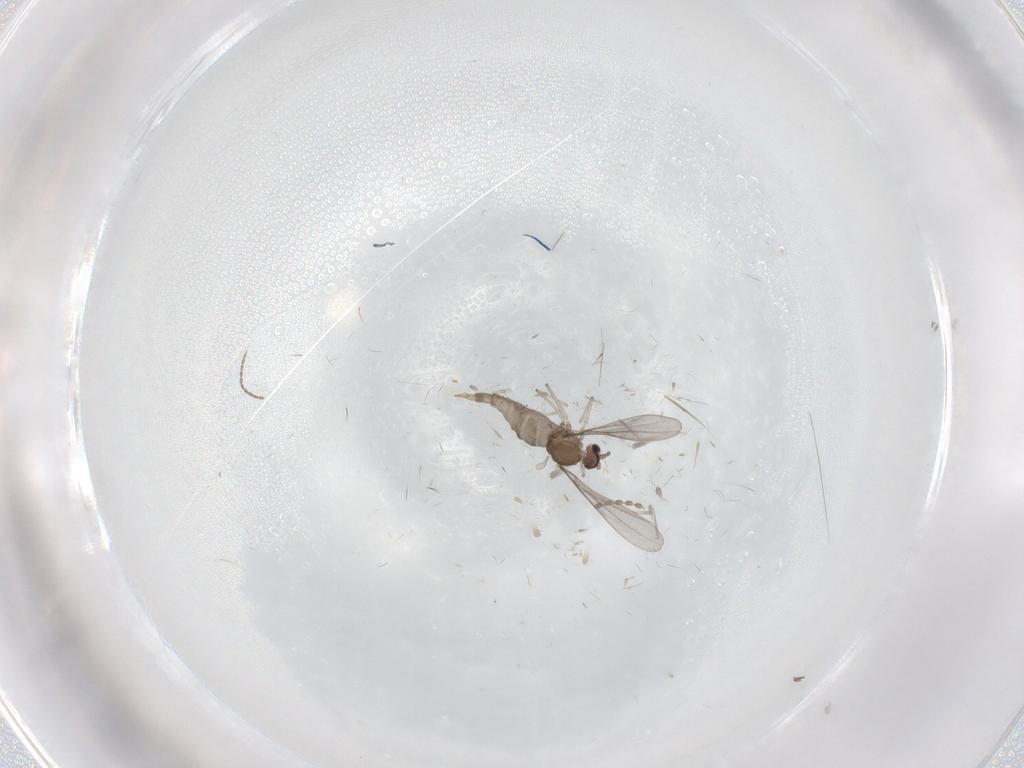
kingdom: Animalia
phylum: Arthropoda
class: Insecta
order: Diptera
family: Cecidomyiidae
